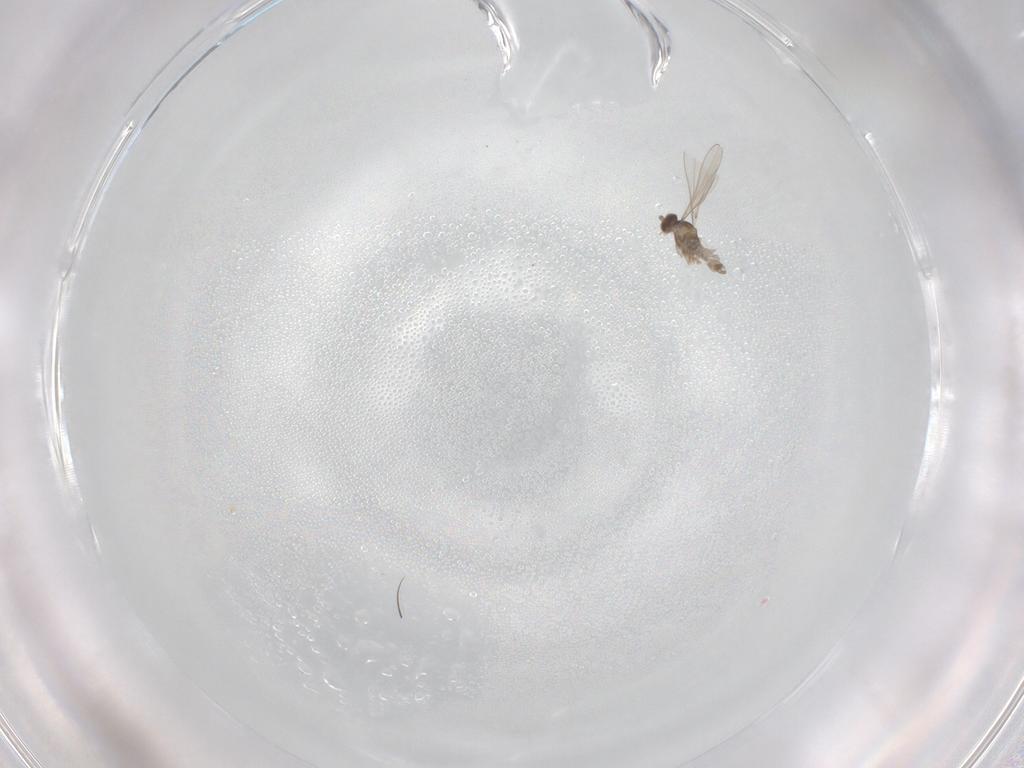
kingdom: Animalia
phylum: Arthropoda
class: Insecta
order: Diptera
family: Cecidomyiidae
